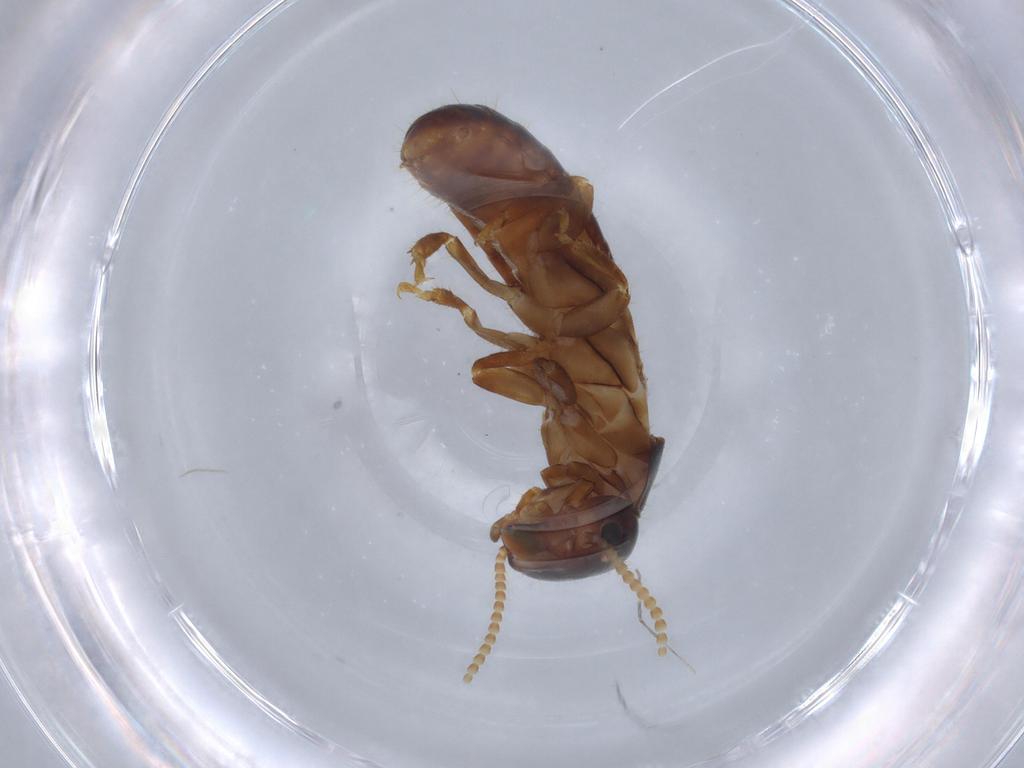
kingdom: Animalia
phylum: Arthropoda
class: Insecta
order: Blattodea
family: Kalotermitidae
